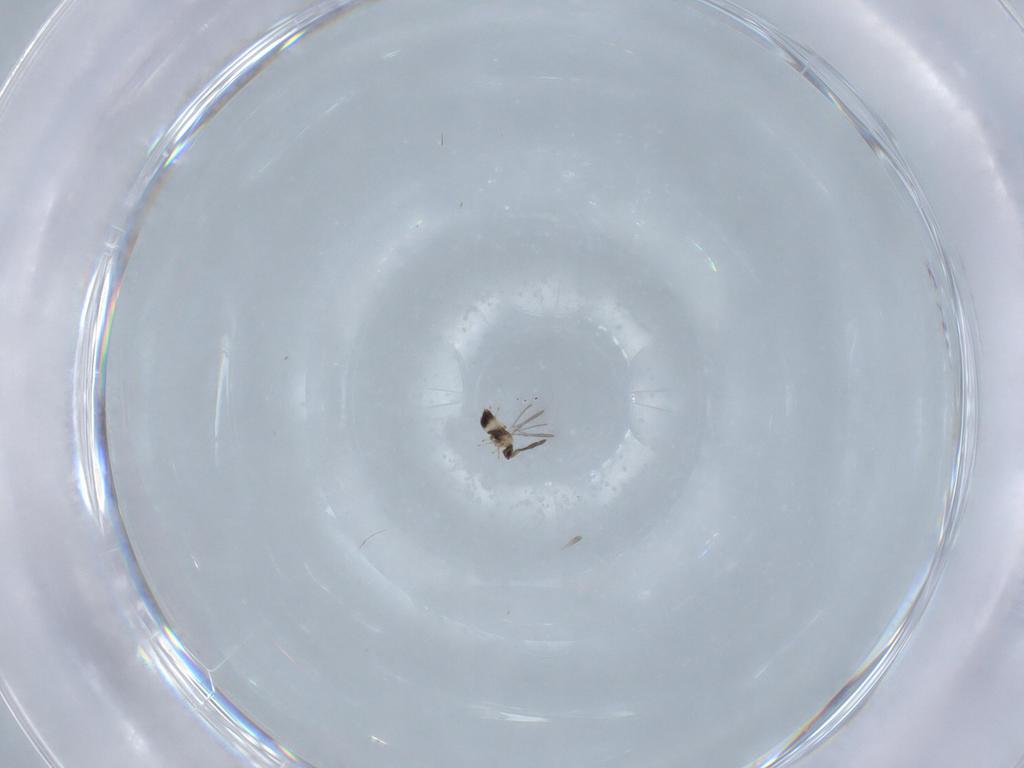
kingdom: Animalia
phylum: Arthropoda
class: Insecta
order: Hymenoptera
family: Mymaridae
